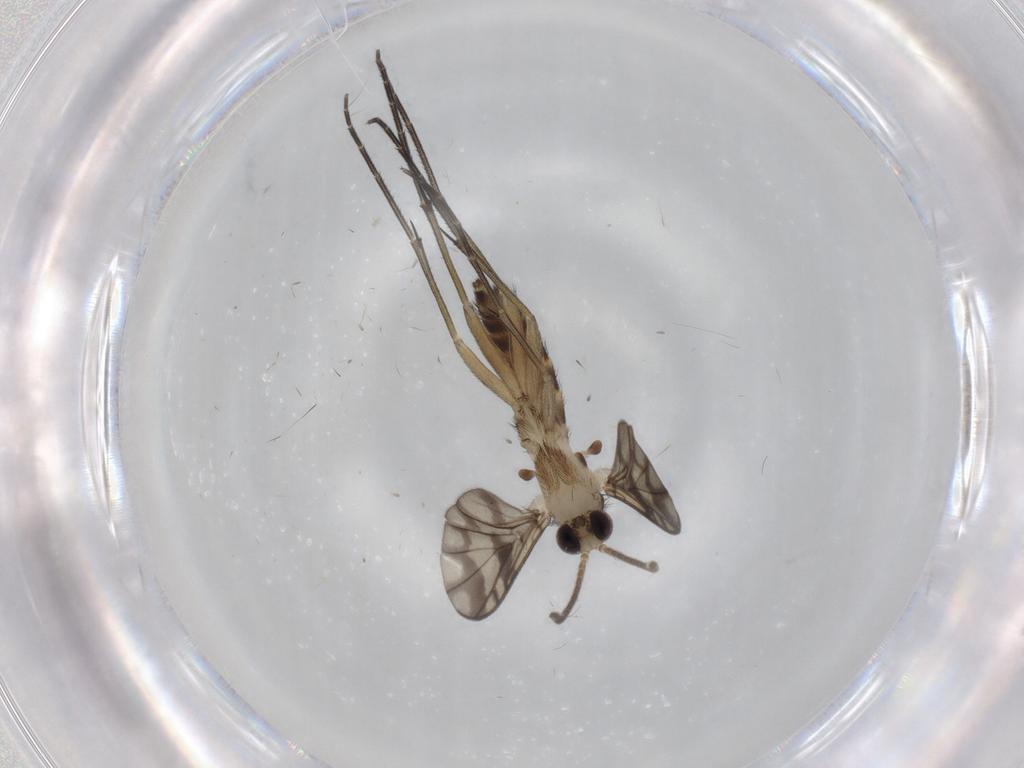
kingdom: Animalia
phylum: Arthropoda
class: Insecta
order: Diptera
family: Keroplatidae
